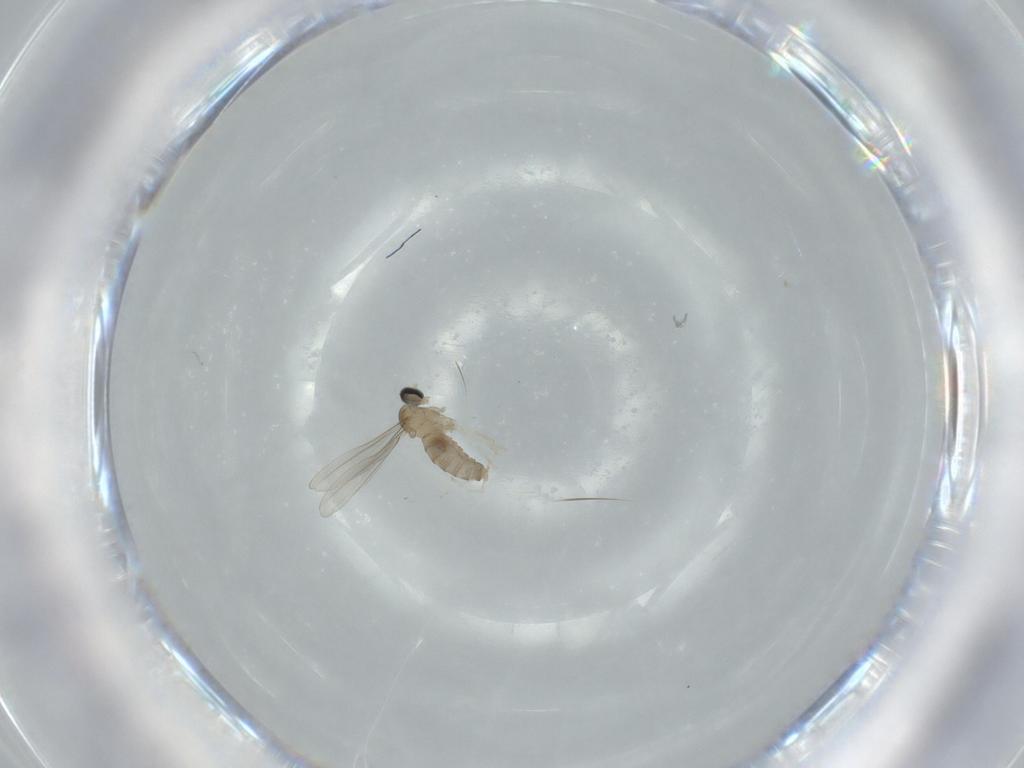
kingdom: Animalia
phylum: Arthropoda
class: Insecta
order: Diptera
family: Cecidomyiidae
